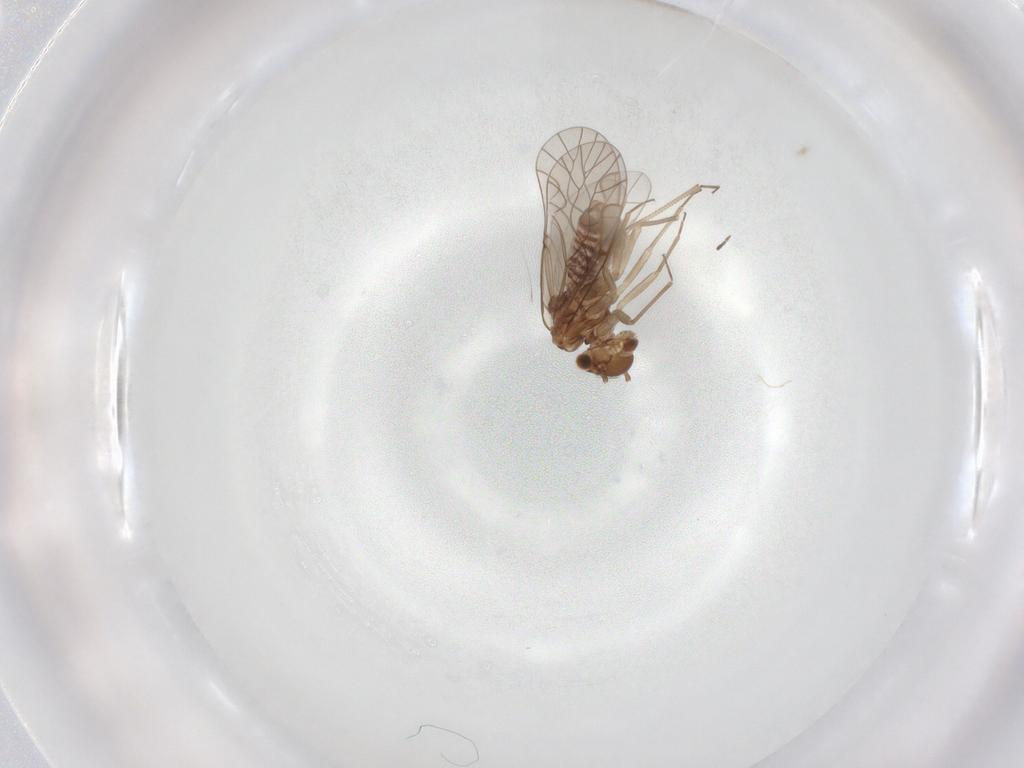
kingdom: Animalia
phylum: Arthropoda
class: Insecta
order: Psocodea
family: Lachesillidae
